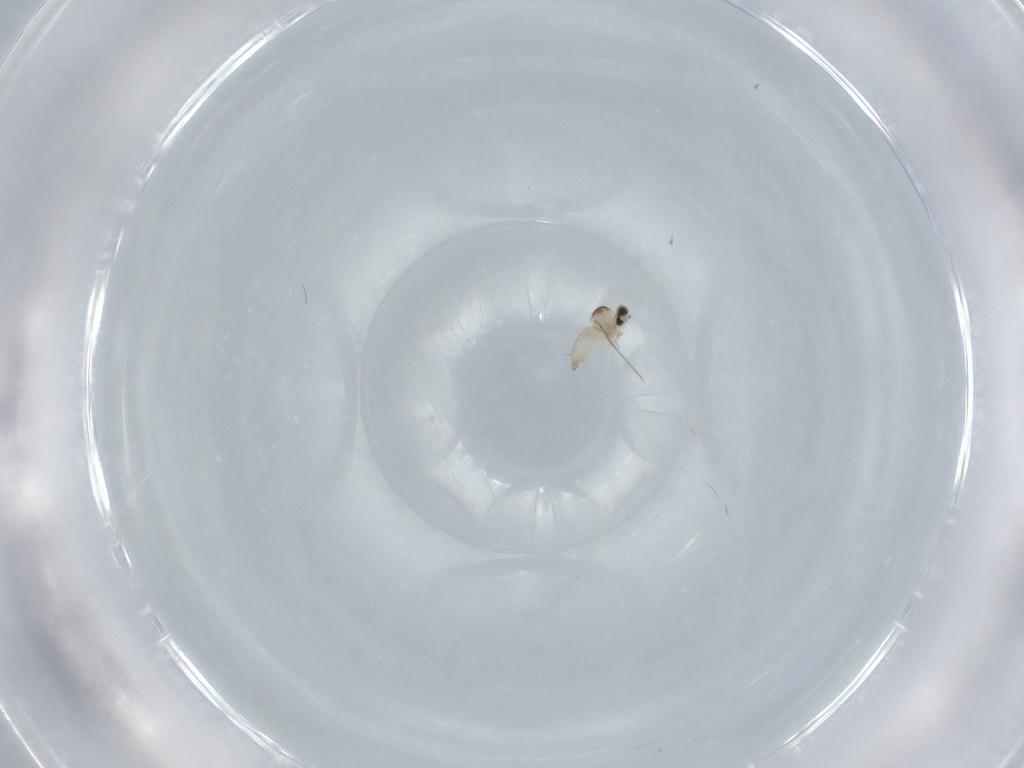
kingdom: Animalia
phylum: Arthropoda
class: Insecta
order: Diptera
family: Cecidomyiidae
